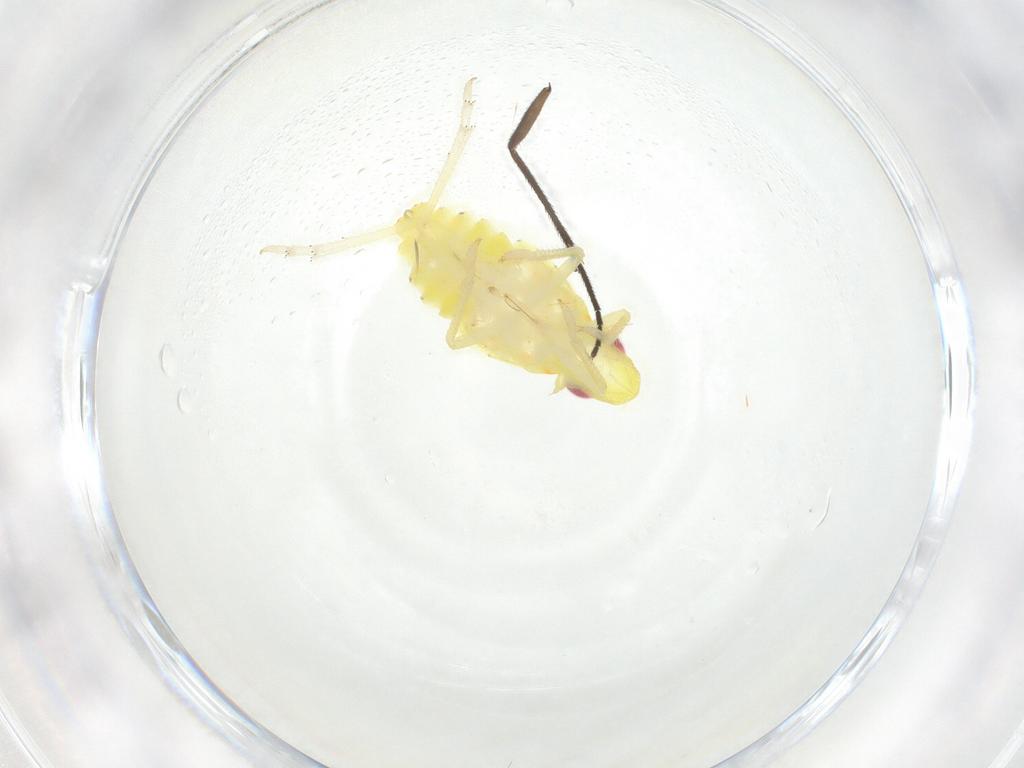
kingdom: Animalia
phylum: Arthropoda
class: Insecta
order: Hemiptera
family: Tropiduchidae
